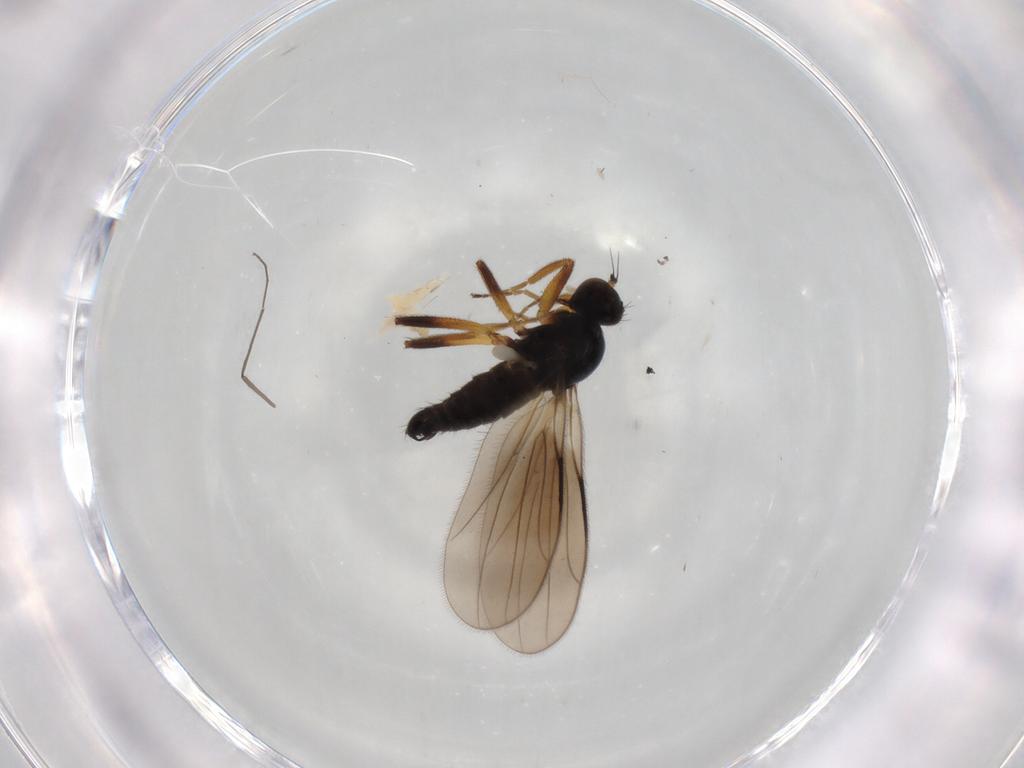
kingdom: Animalia
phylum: Arthropoda
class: Insecta
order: Diptera
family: Hybotidae
